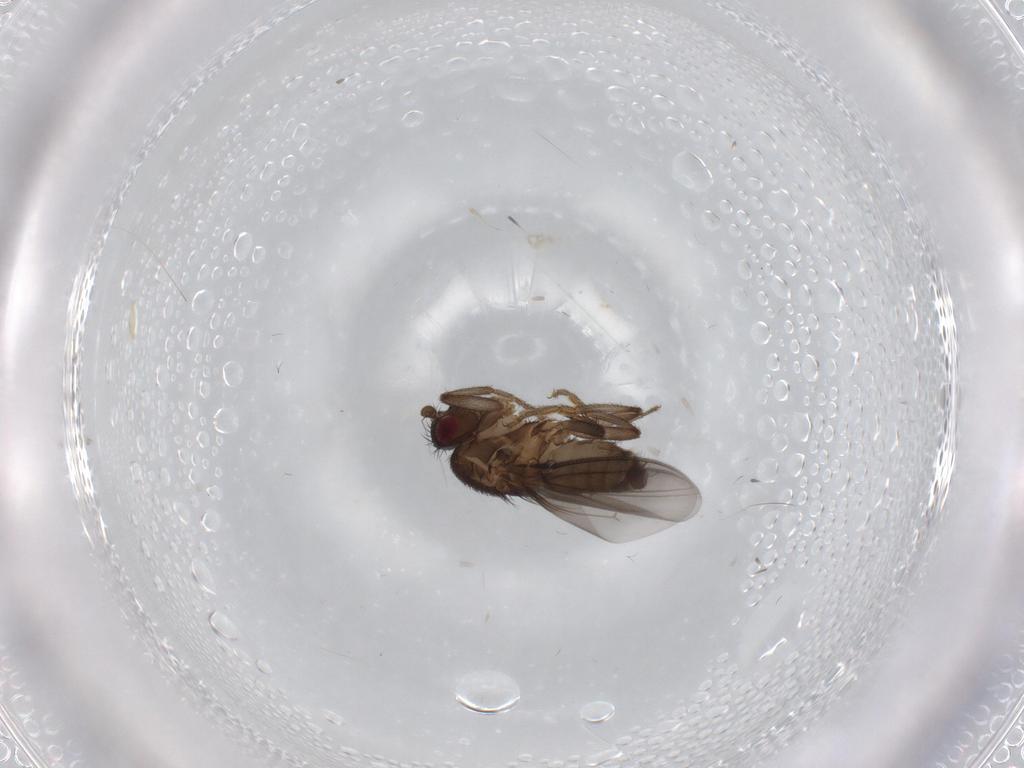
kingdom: Animalia
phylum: Arthropoda
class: Insecta
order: Diptera
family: Sphaeroceridae
